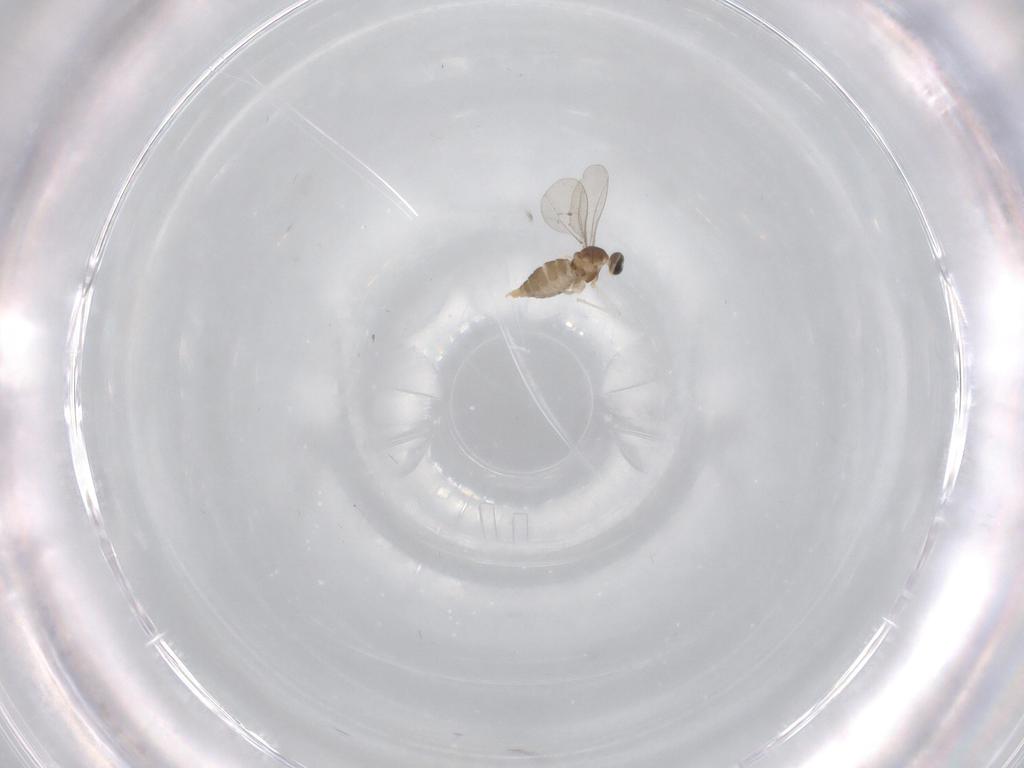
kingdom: Animalia
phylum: Arthropoda
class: Insecta
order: Diptera
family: Cecidomyiidae
